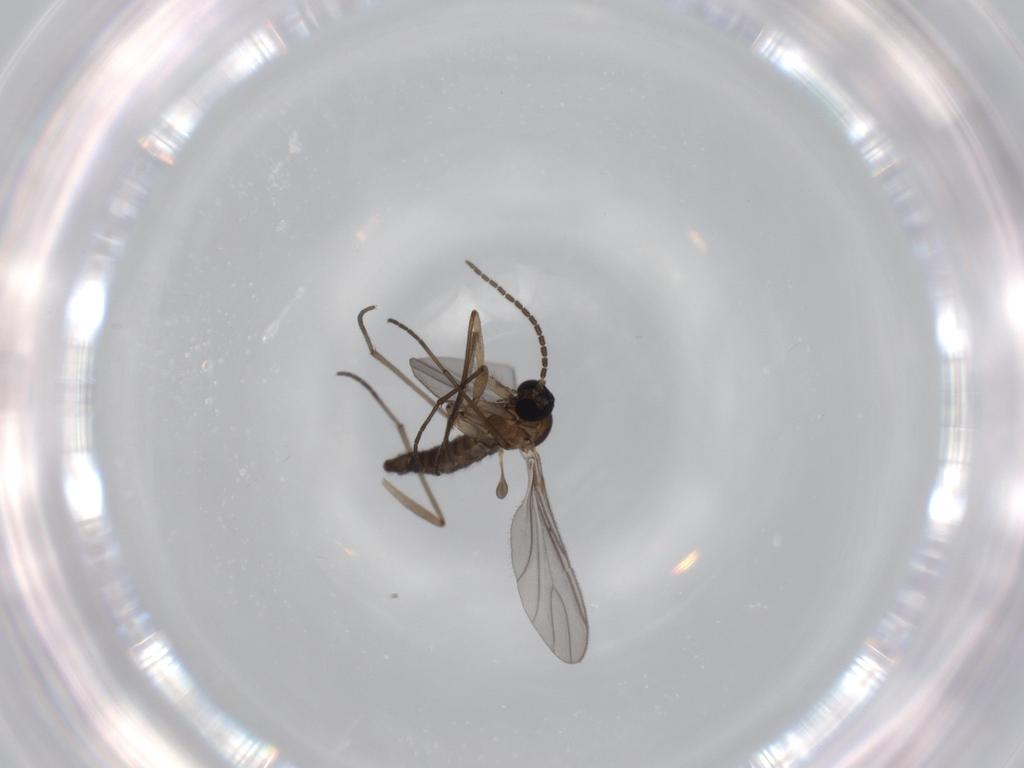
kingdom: Animalia
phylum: Arthropoda
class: Insecta
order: Diptera
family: Sciaridae
